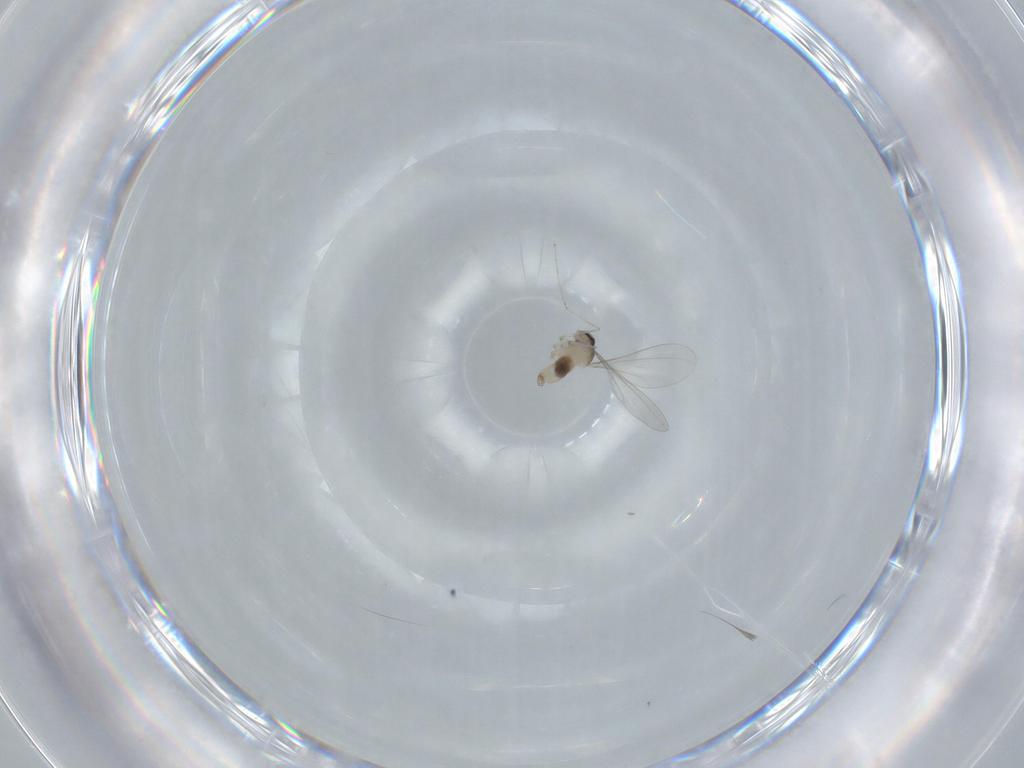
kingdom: Animalia
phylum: Arthropoda
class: Insecta
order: Diptera
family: Cecidomyiidae
